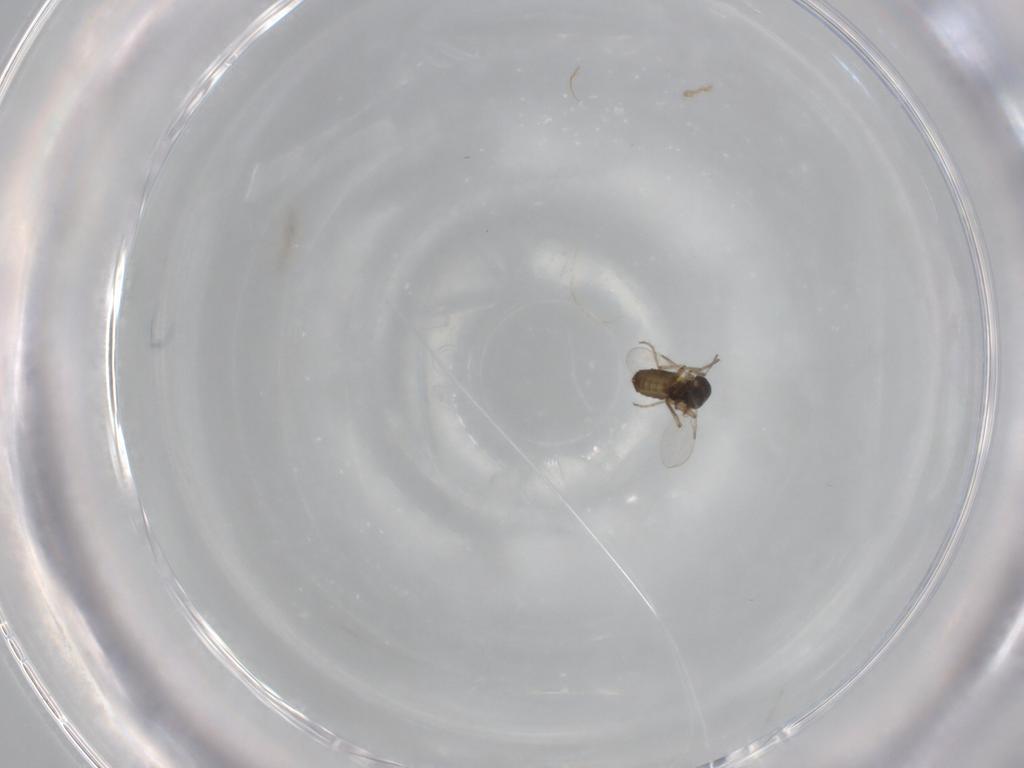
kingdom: Animalia
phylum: Arthropoda
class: Insecta
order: Diptera
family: Ceratopogonidae
